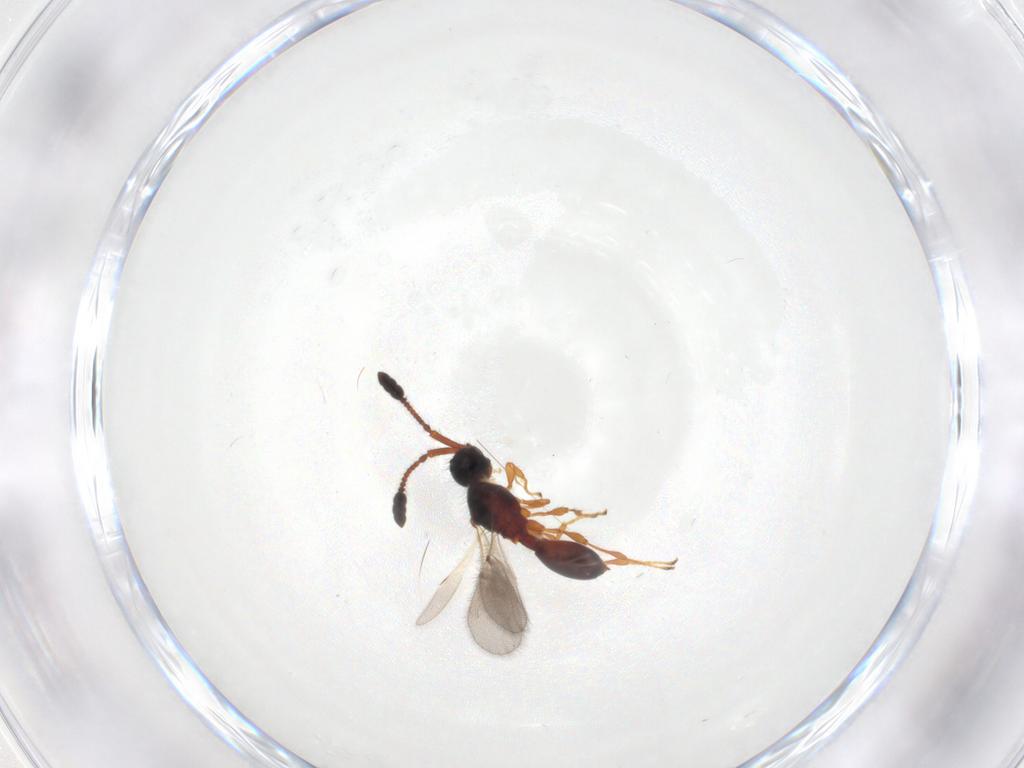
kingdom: Animalia
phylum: Arthropoda
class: Insecta
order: Hymenoptera
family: Diapriidae
